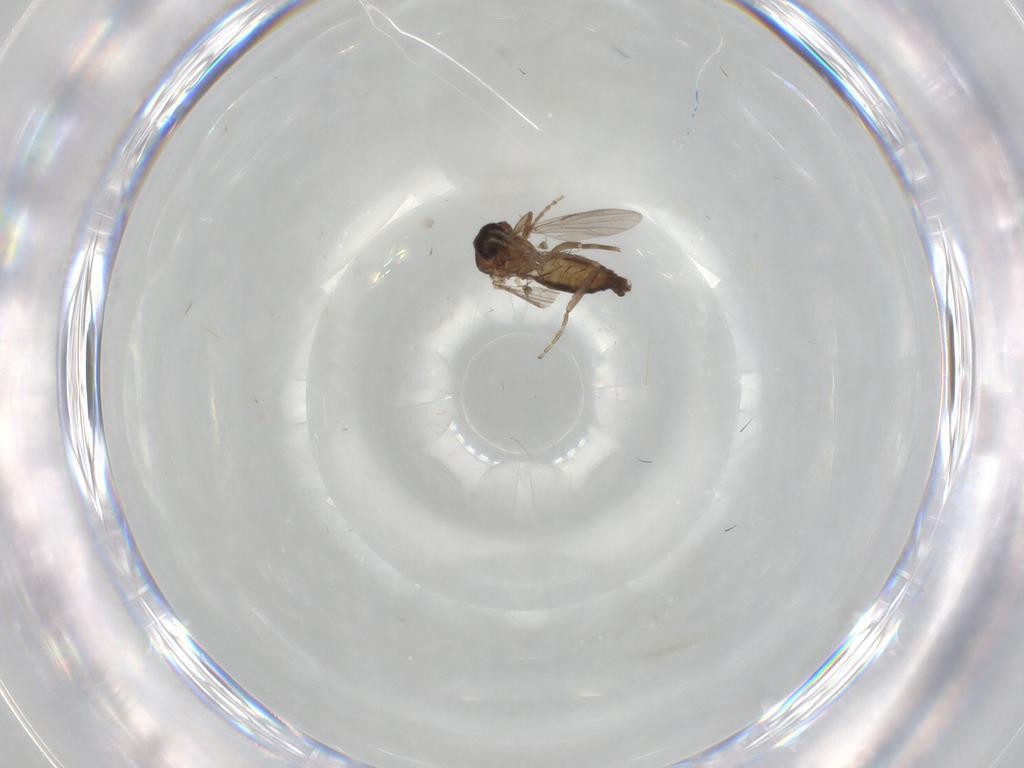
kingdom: Animalia
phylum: Arthropoda
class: Insecta
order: Diptera
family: Ceratopogonidae
